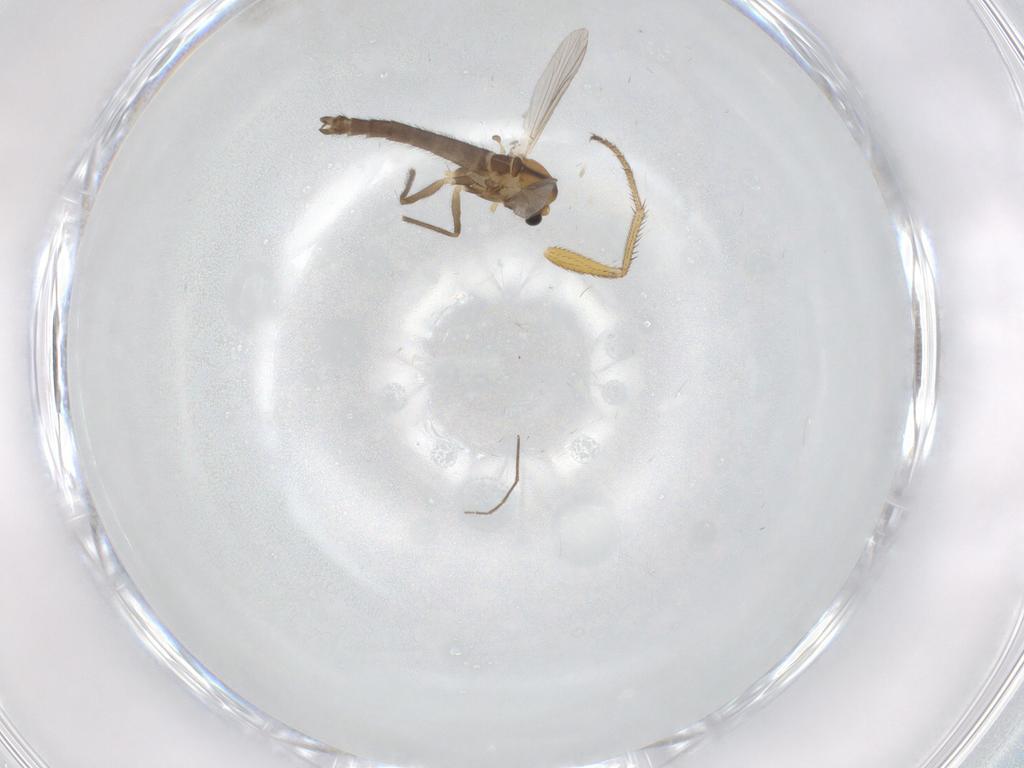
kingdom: Animalia
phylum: Arthropoda
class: Insecta
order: Diptera
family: Chironomidae
